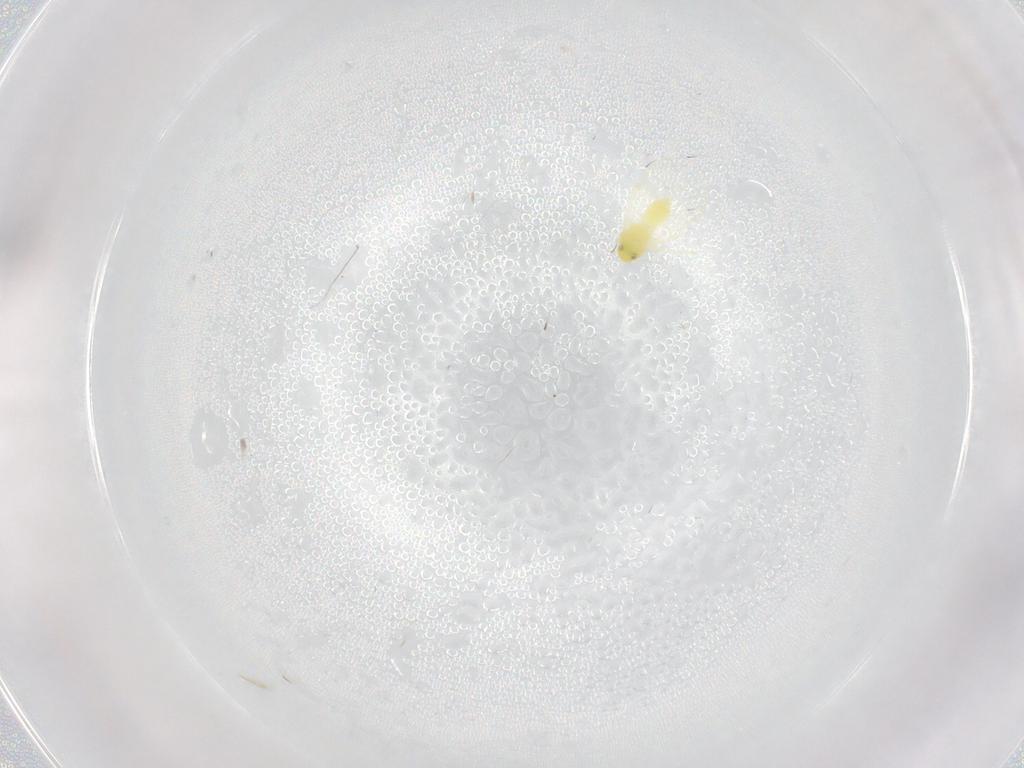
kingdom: Animalia
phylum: Arthropoda
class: Insecta
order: Hemiptera
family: Aleyrodidae
